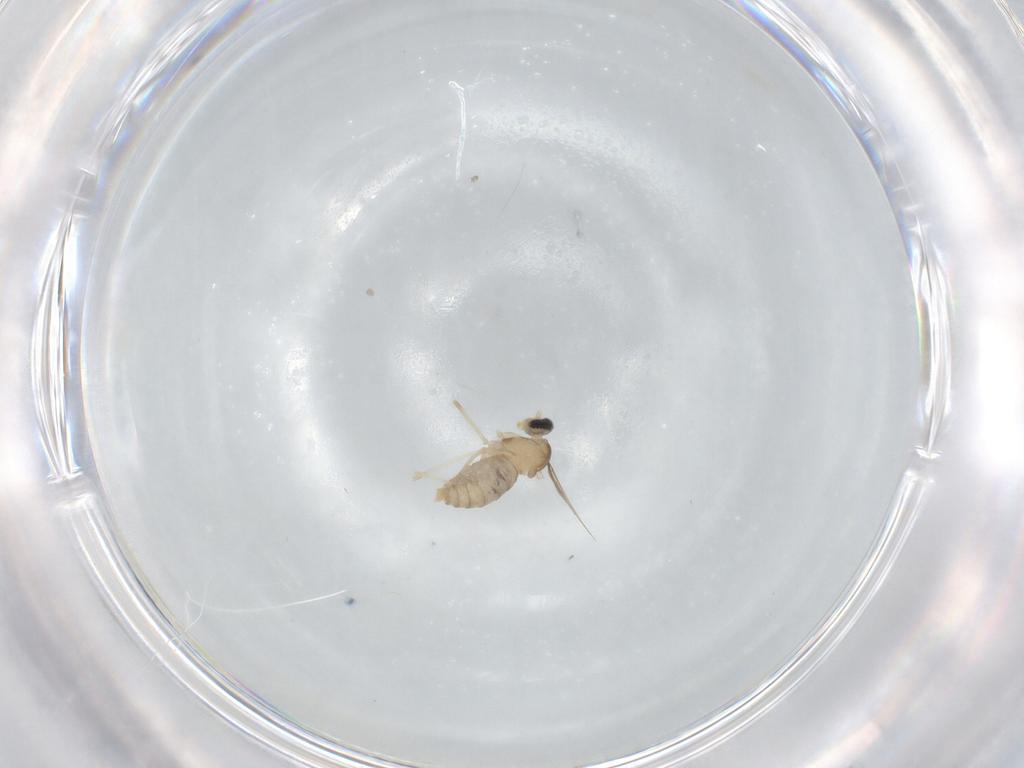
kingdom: Animalia
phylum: Arthropoda
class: Insecta
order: Diptera
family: Cecidomyiidae
